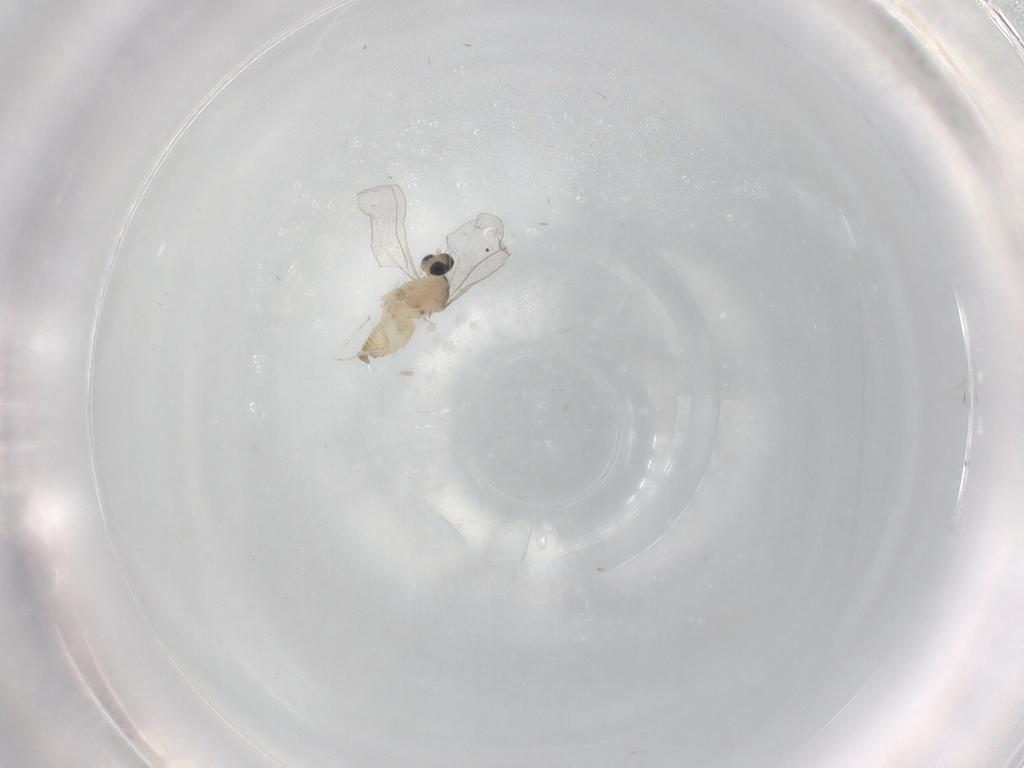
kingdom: Animalia
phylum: Arthropoda
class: Insecta
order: Diptera
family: Cecidomyiidae
